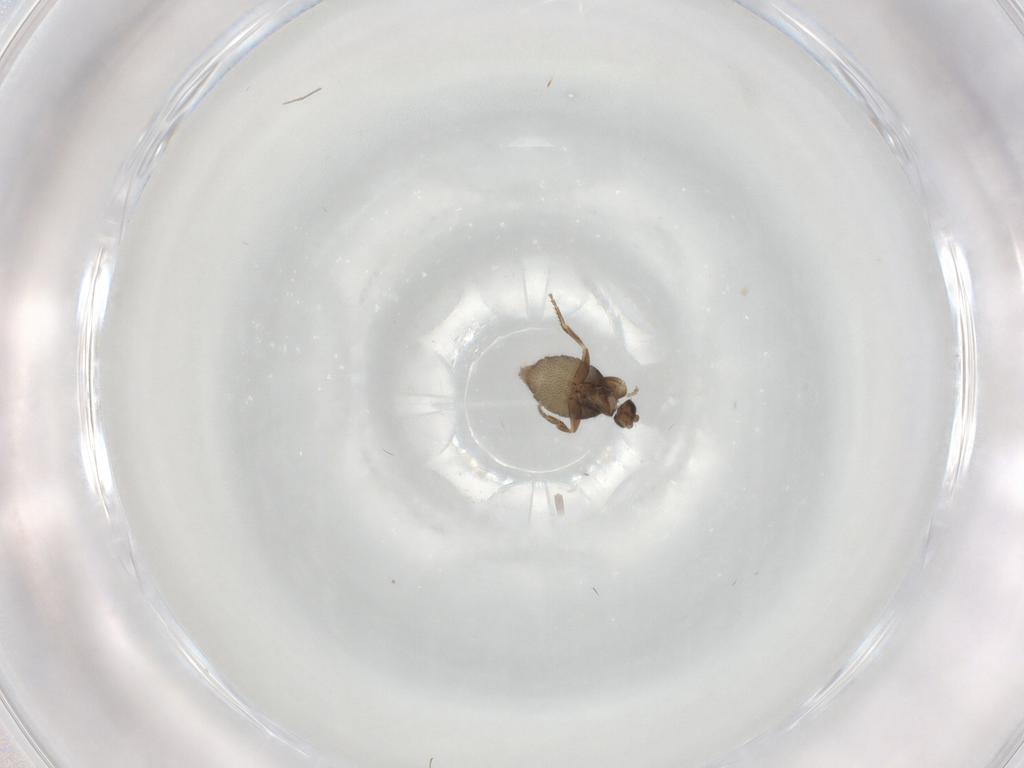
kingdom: Animalia
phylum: Arthropoda
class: Insecta
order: Diptera
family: Chironomidae
